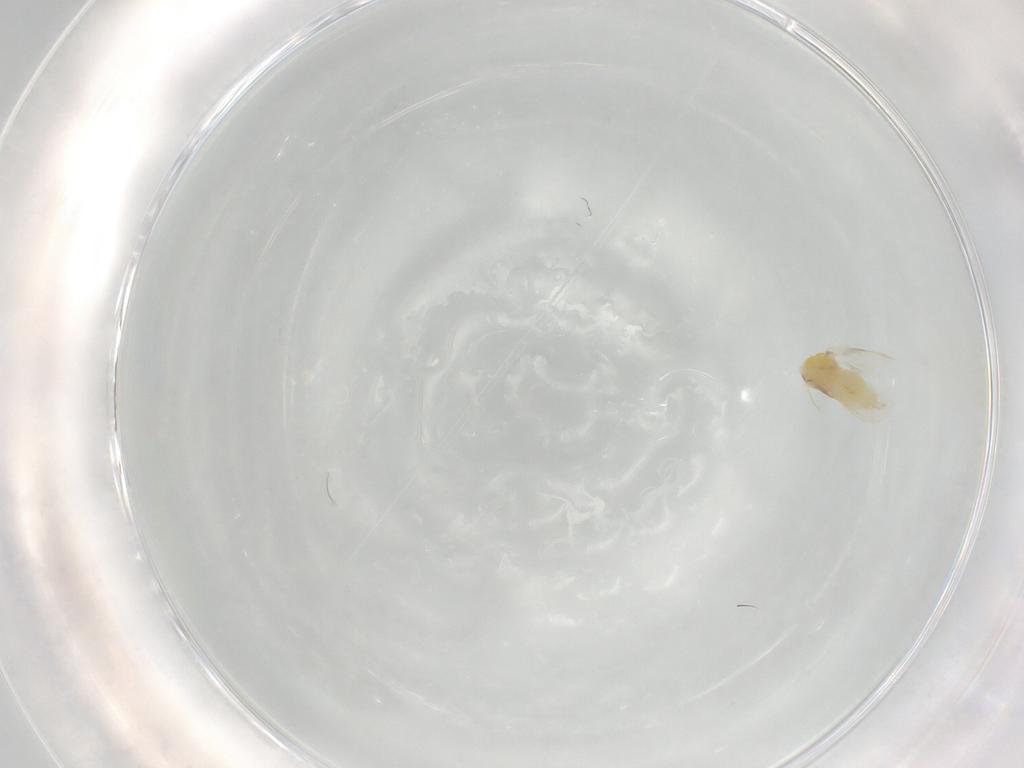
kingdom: Animalia
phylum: Arthropoda
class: Insecta
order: Hemiptera
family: Aleyrodidae
